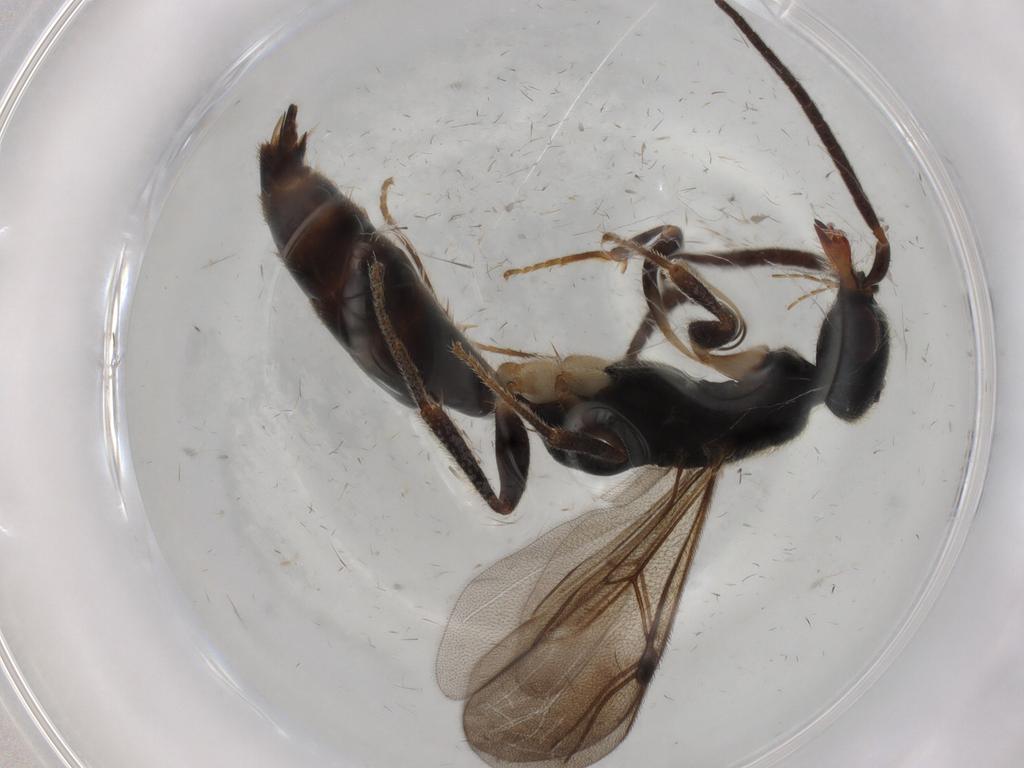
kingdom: Animalia
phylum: Arthropoda
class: Insecta
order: Hymenoptera
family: Bethylidae
